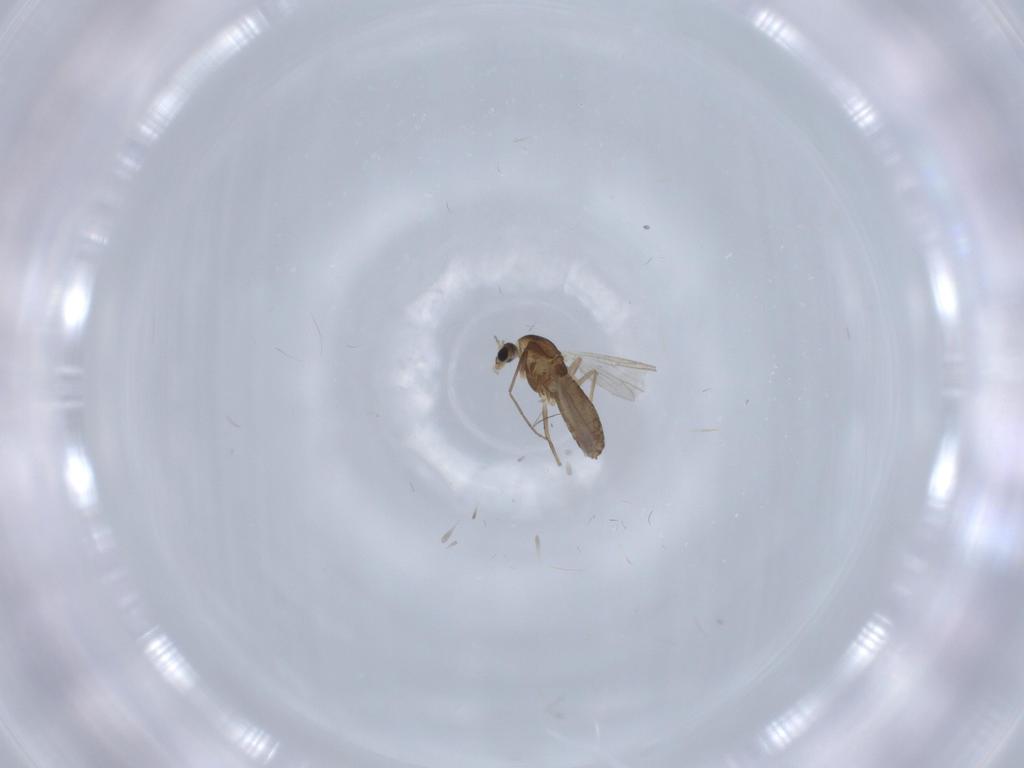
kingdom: Animalia
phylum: Arthropoda
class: Insecta
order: Diptera
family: Chironomidae
